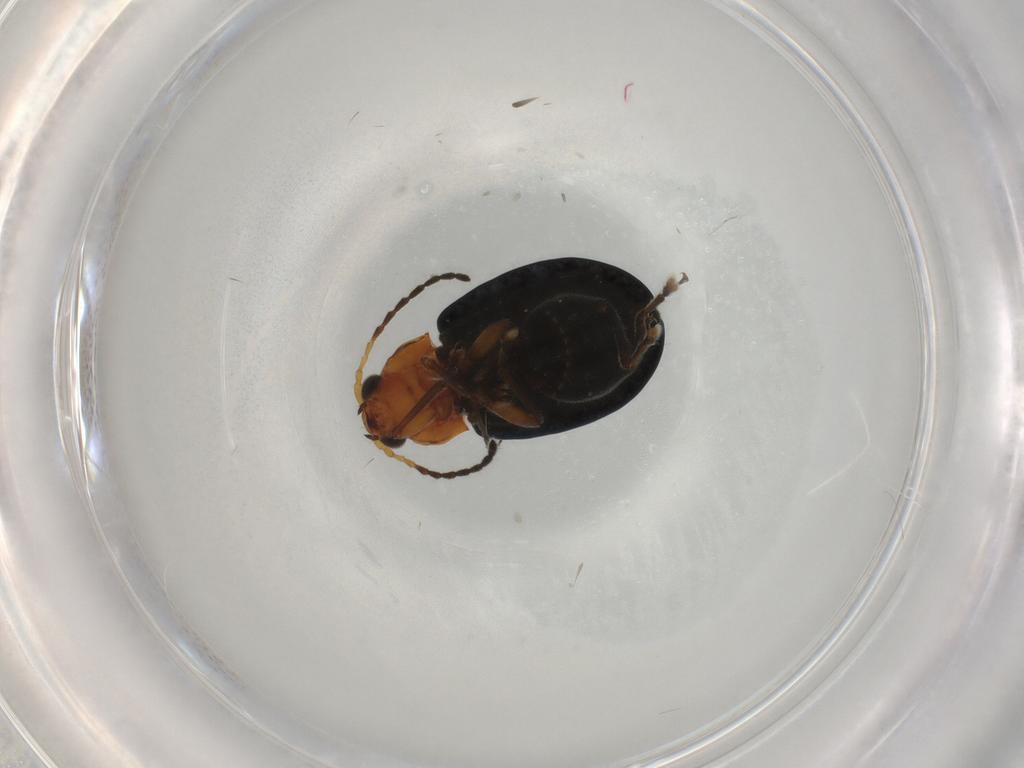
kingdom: Animalia
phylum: Arthropoda
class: Insecta
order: Coleoptera
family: Chrysomelidae
